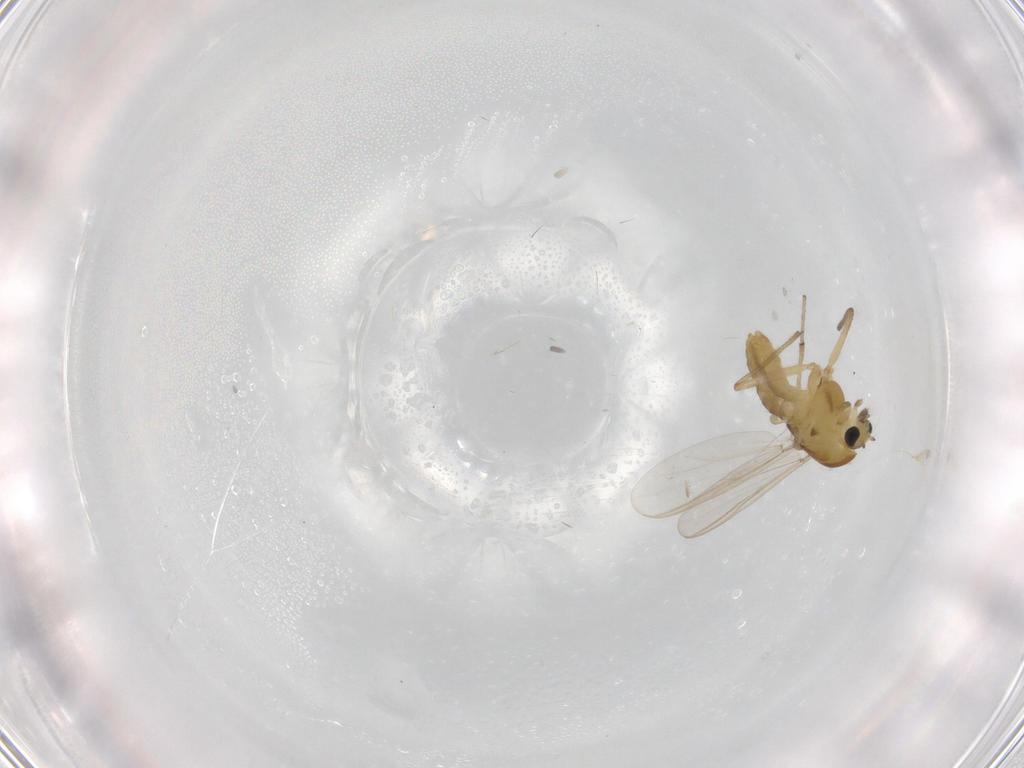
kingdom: Animalia
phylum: Arthropoda
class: Insecta
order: Diptera
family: Chironomidae
